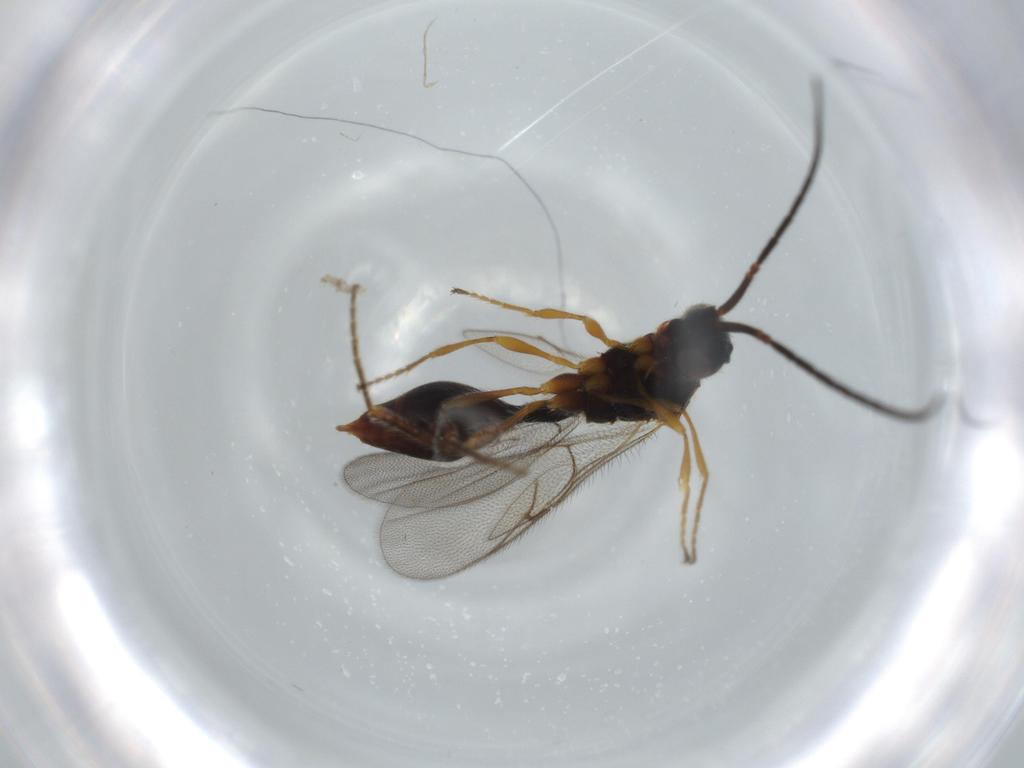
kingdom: Animalia
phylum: Arthropoda
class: Insecta
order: Hymenoptera
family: Diapriidae
